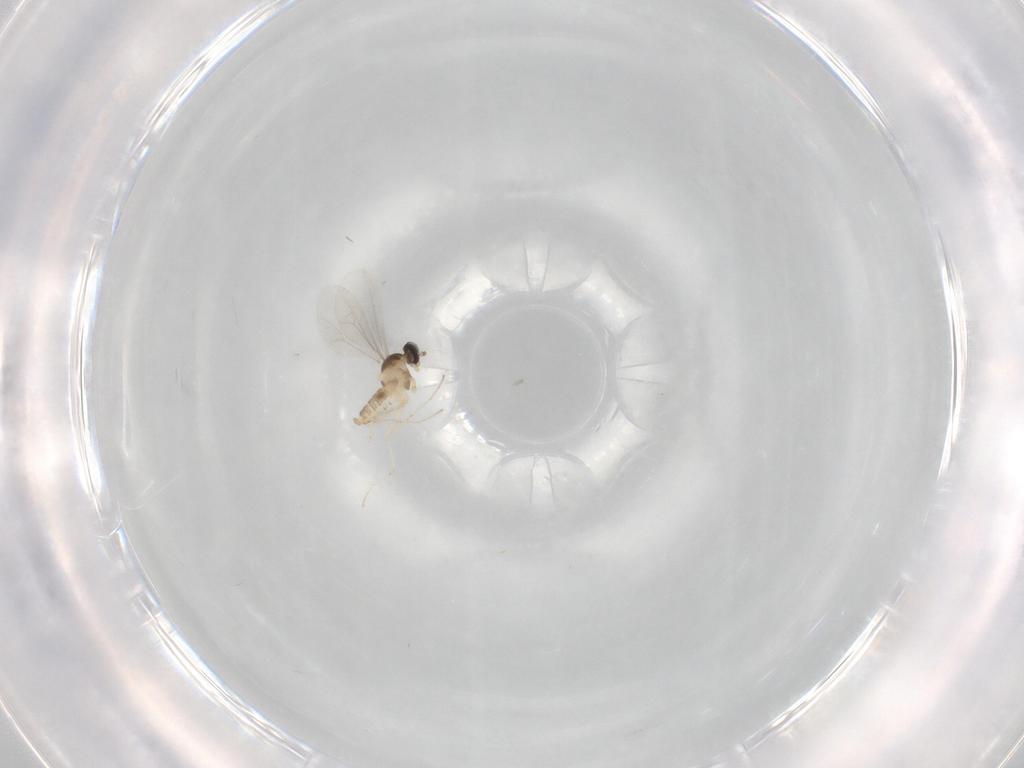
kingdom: Animalia
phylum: Arthropoda
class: Insecta
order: Diptera
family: Cecidomyiidae
